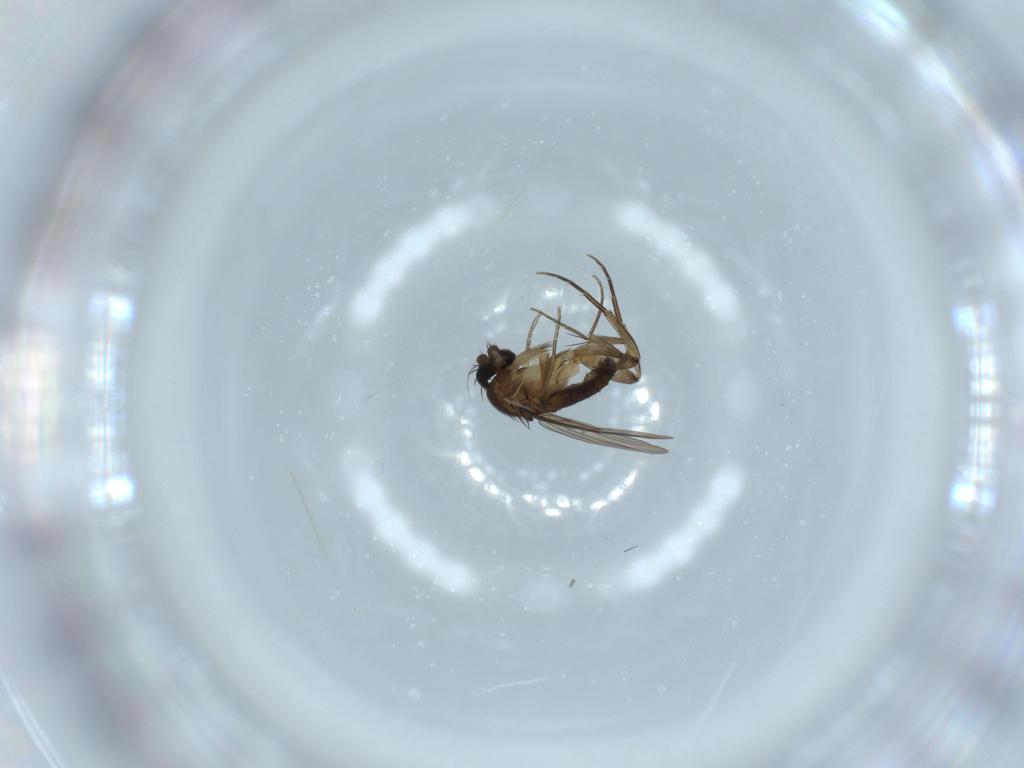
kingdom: Animalia
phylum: Arthropoda
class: Insecta
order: Diptera
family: Phoridae
